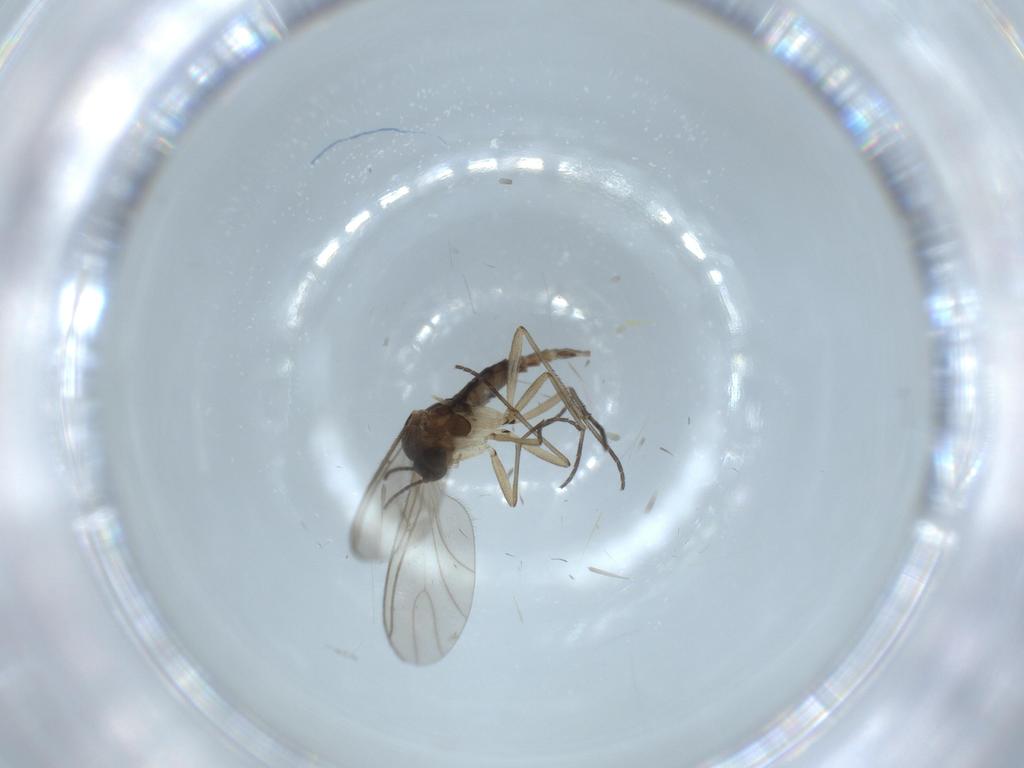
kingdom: Animalia
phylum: Arthropoda
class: Insecta
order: Diptera
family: Sciaridae
